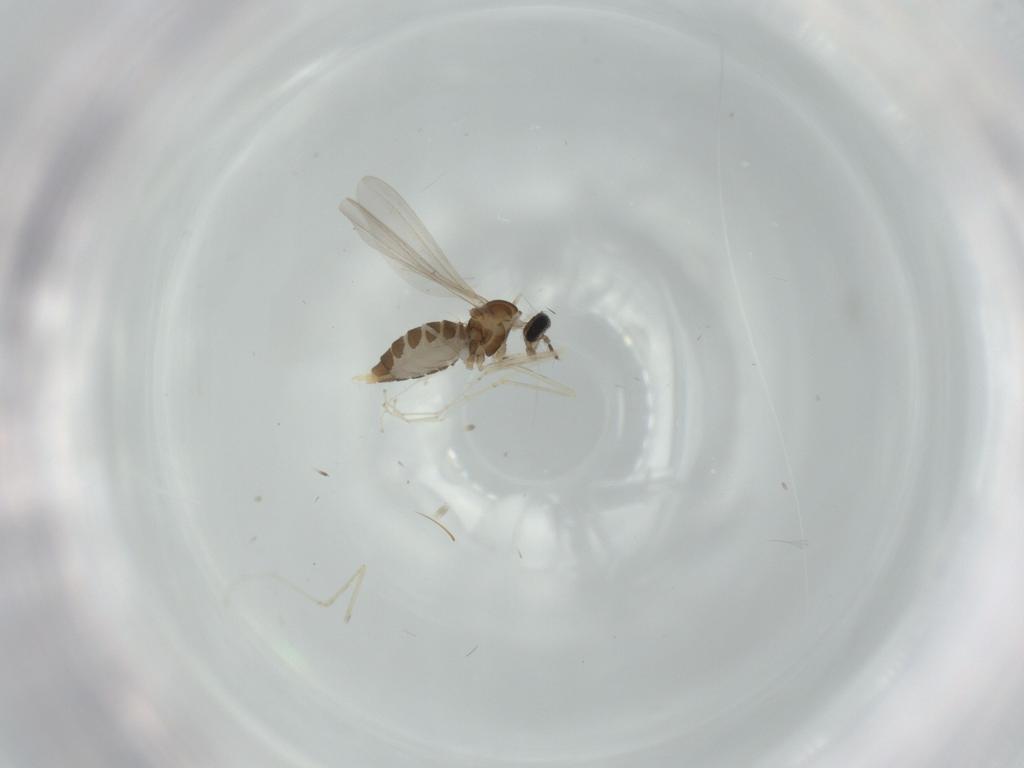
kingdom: Animalia
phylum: Arthropoda
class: Insecta
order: Diptera
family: Cecidomyiidae
